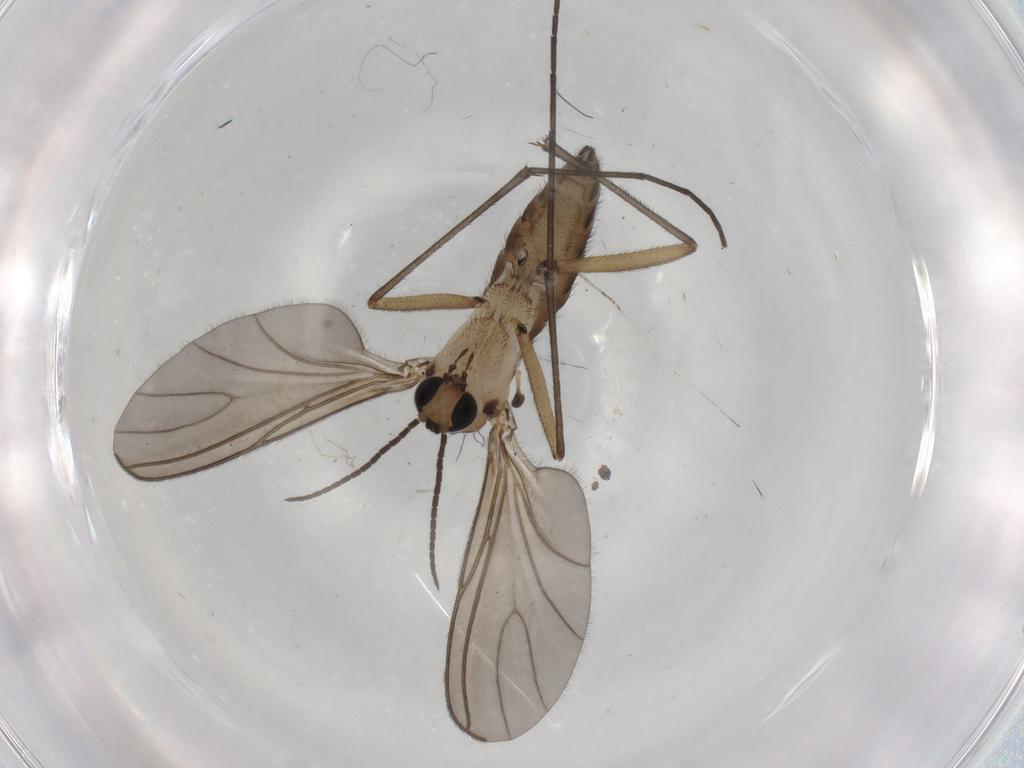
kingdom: Animalia
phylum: Arthropoda
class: Insecta
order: Diptera
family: Sciaridae
